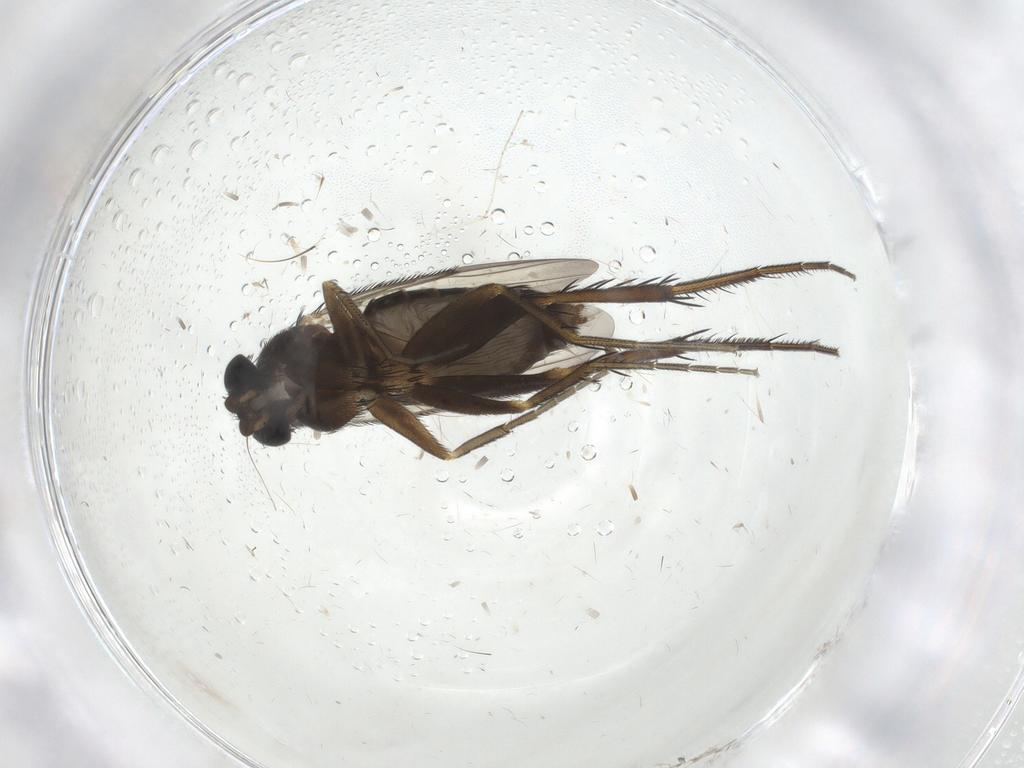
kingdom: Animalia
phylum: Arthropoda
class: Insecta
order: Diptera
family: Phoridae
